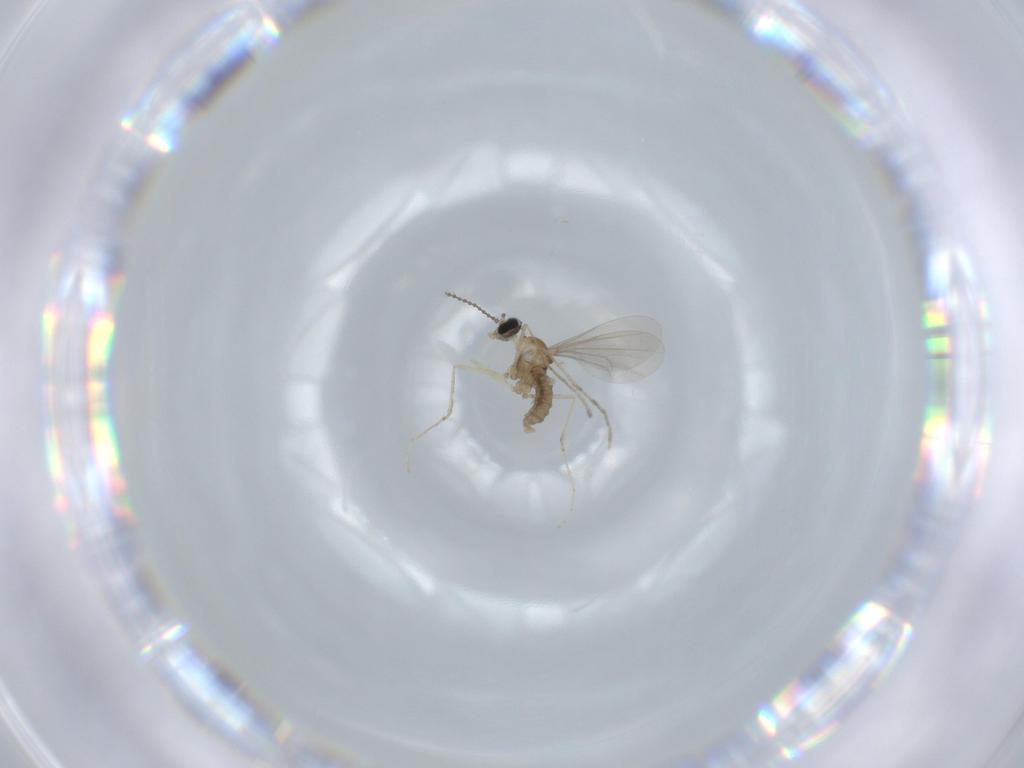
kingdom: Animalia
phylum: Arthropoda
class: Insecta
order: Diptera
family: Cecidomyiidae
